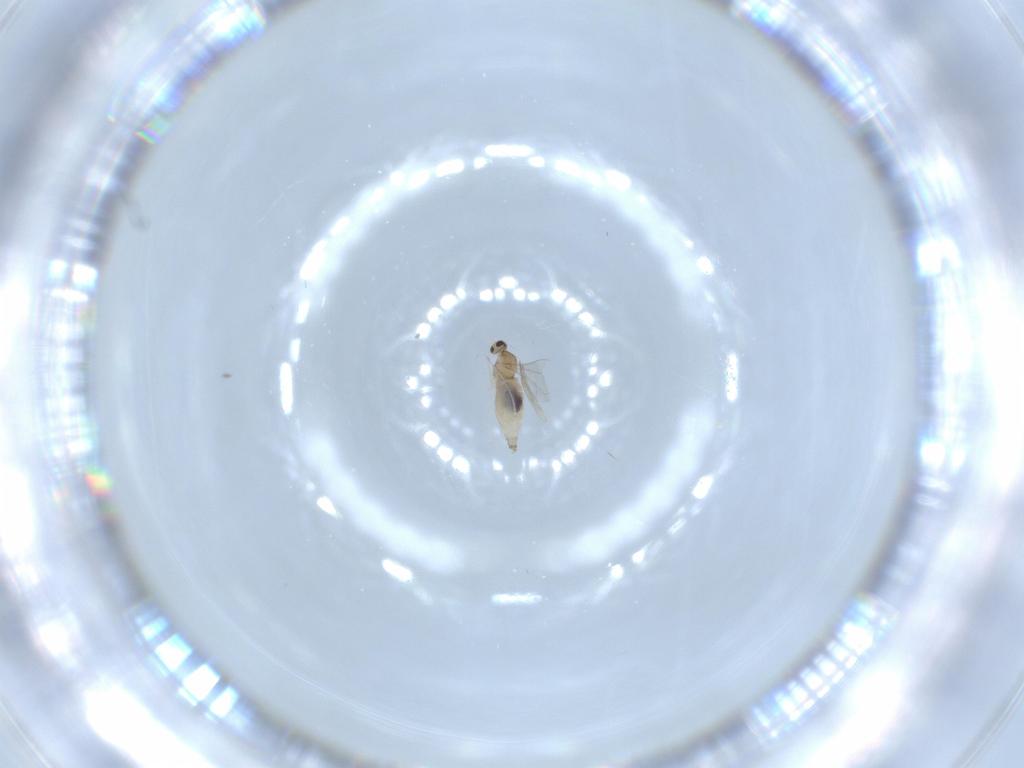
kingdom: Animalia
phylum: Arthropoda
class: Insecta
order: Diptera
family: Cecidomyiidae
